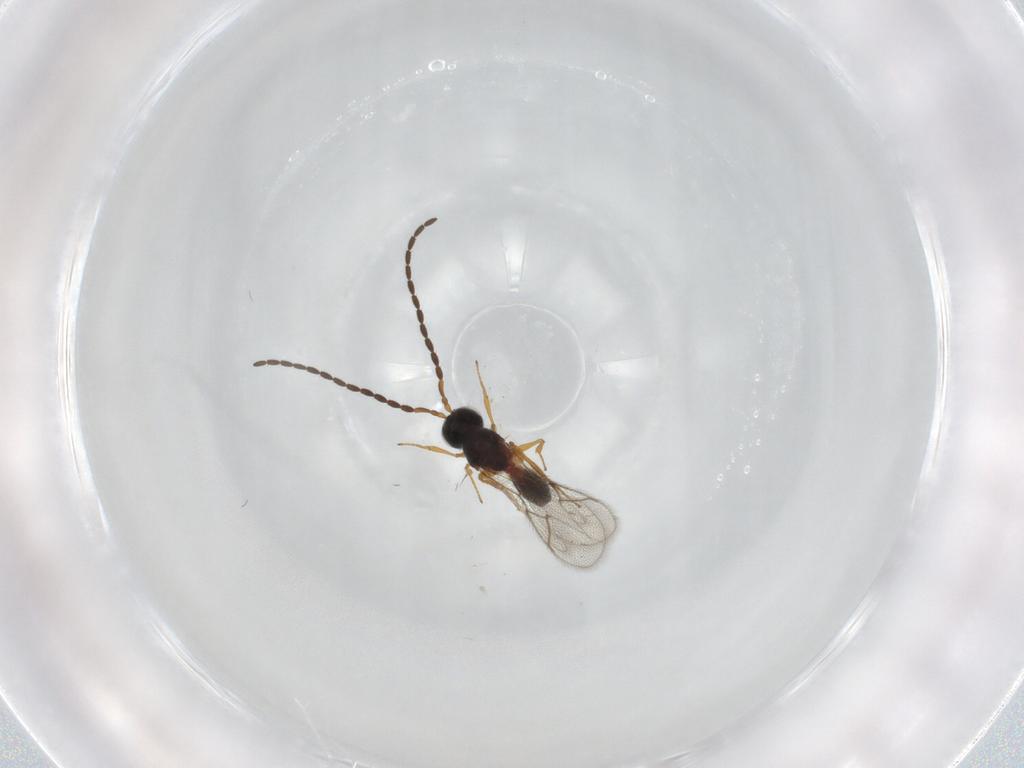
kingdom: Animalia
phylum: Arthropoda
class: Insecta
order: Hymenoptera
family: Figitidae
